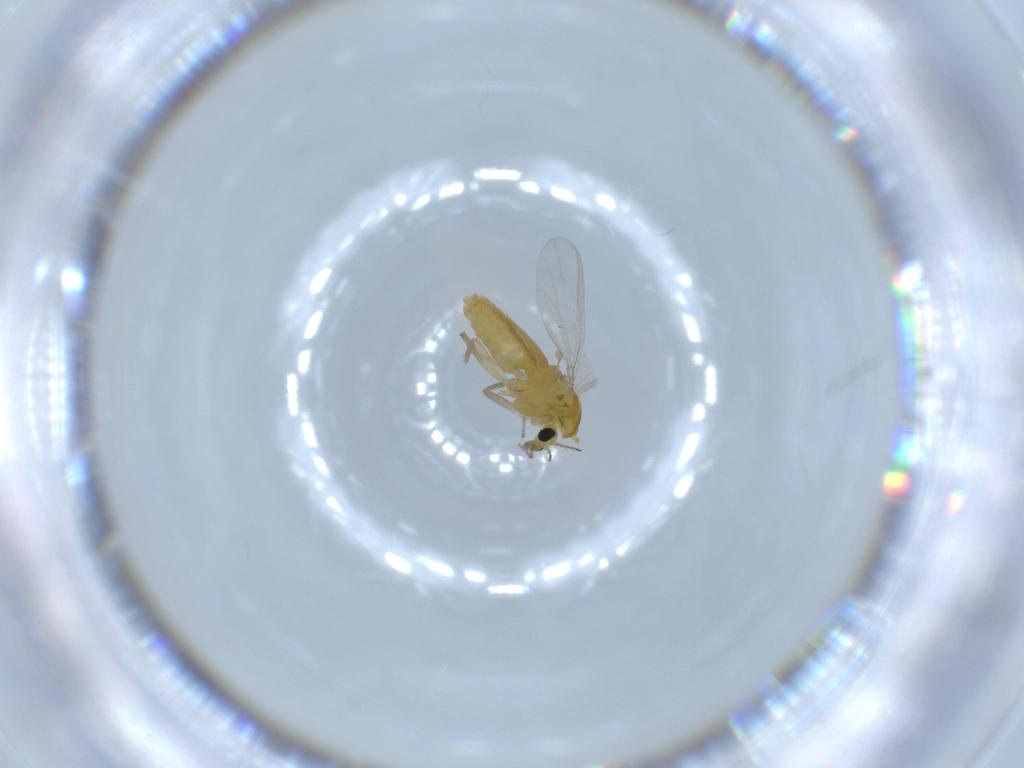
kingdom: Animalia
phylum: Arthropoda
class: Insecta
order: Diptera
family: Chironomidae
